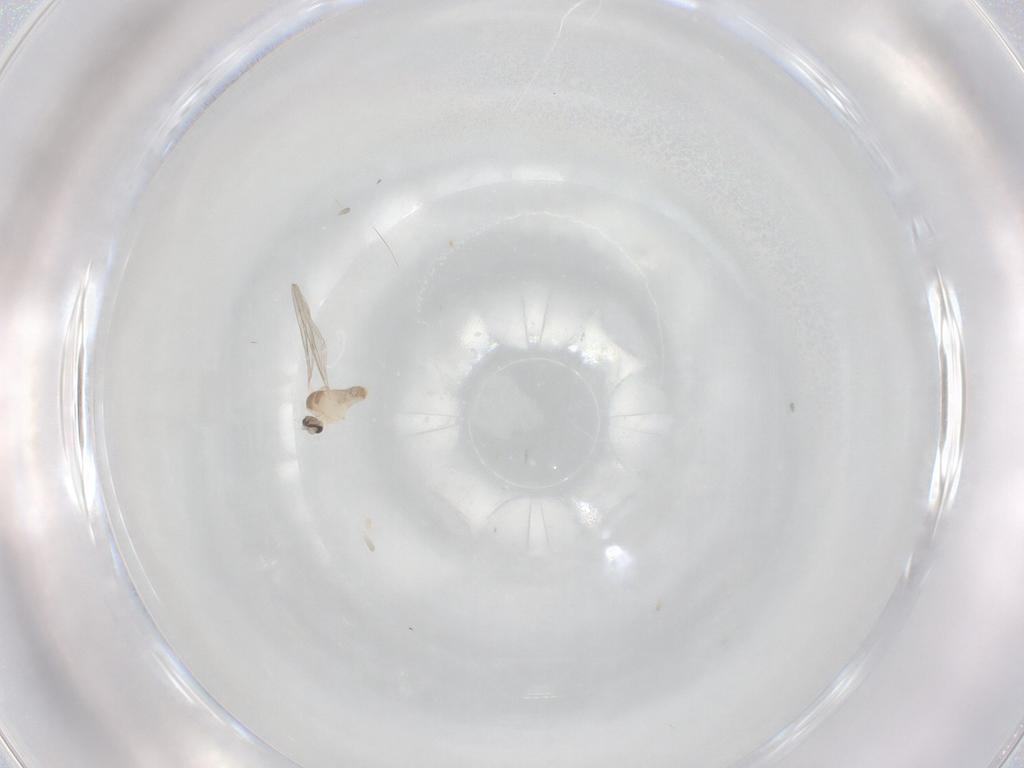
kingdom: Animalia
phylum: Arthropoda
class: Insecta
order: Diptera
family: Cecidomyiidae
